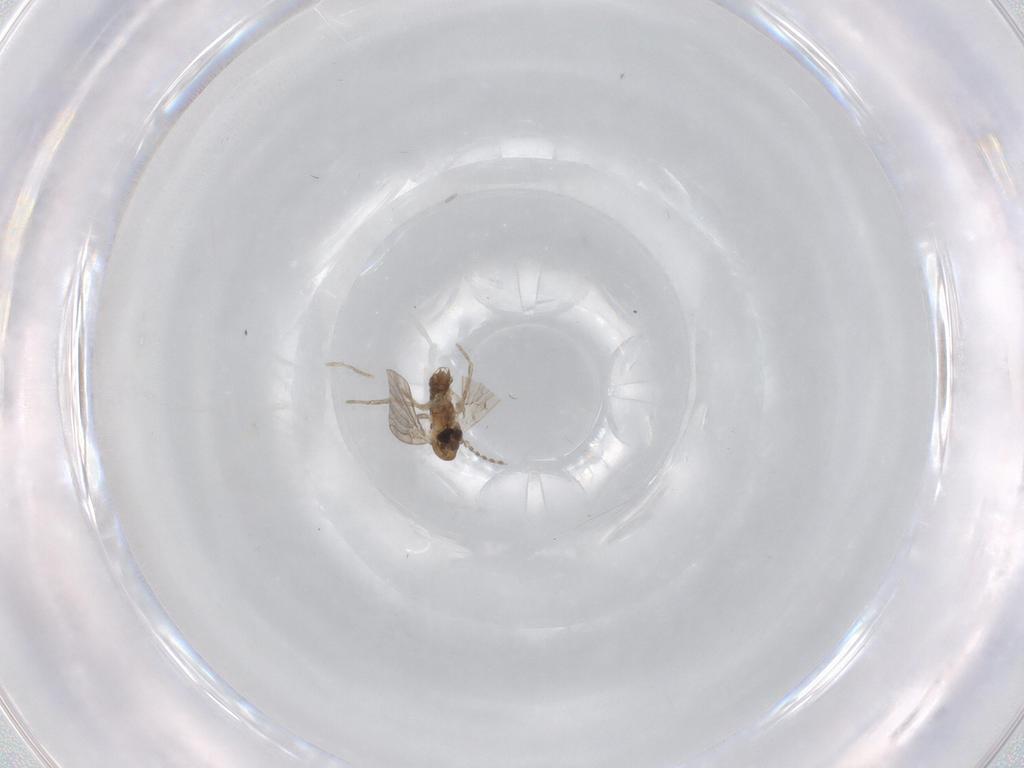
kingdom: Animalia
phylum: Arthropoda
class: Insecta
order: Diptera
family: Psychodidae
